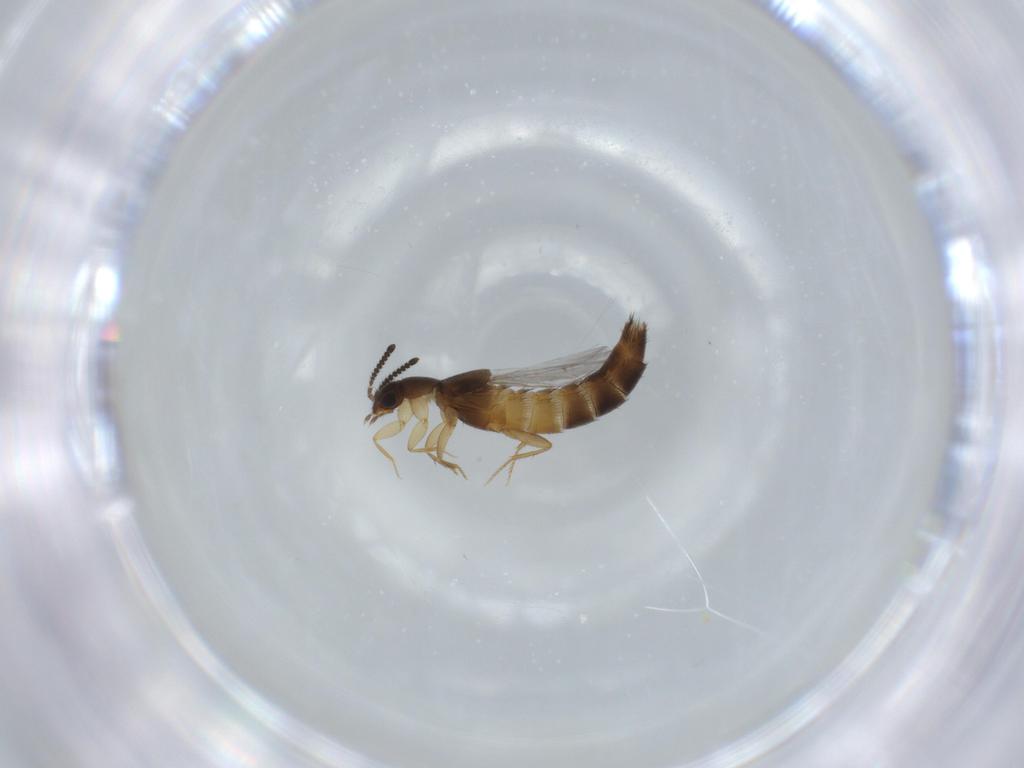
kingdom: Animalia
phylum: Arthropoda
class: Insecta
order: Coleoptera
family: Staphylinidae
